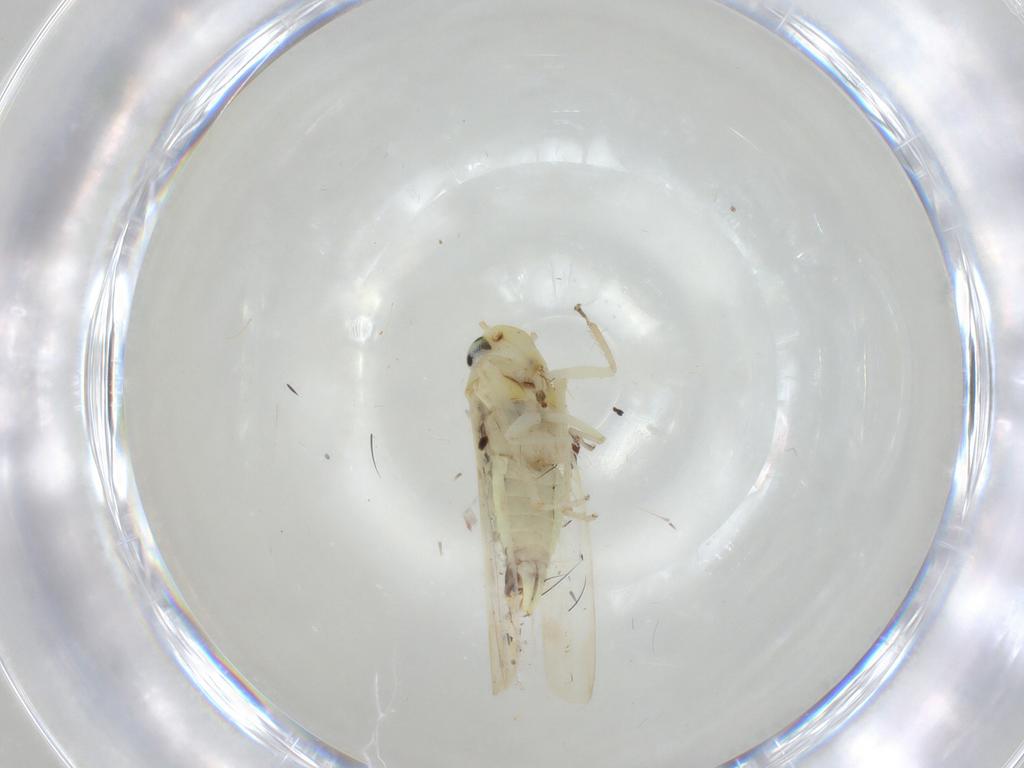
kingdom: Animalia
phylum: Arthropoda
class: Insecta
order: Hemiptera
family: Cicadellidae
